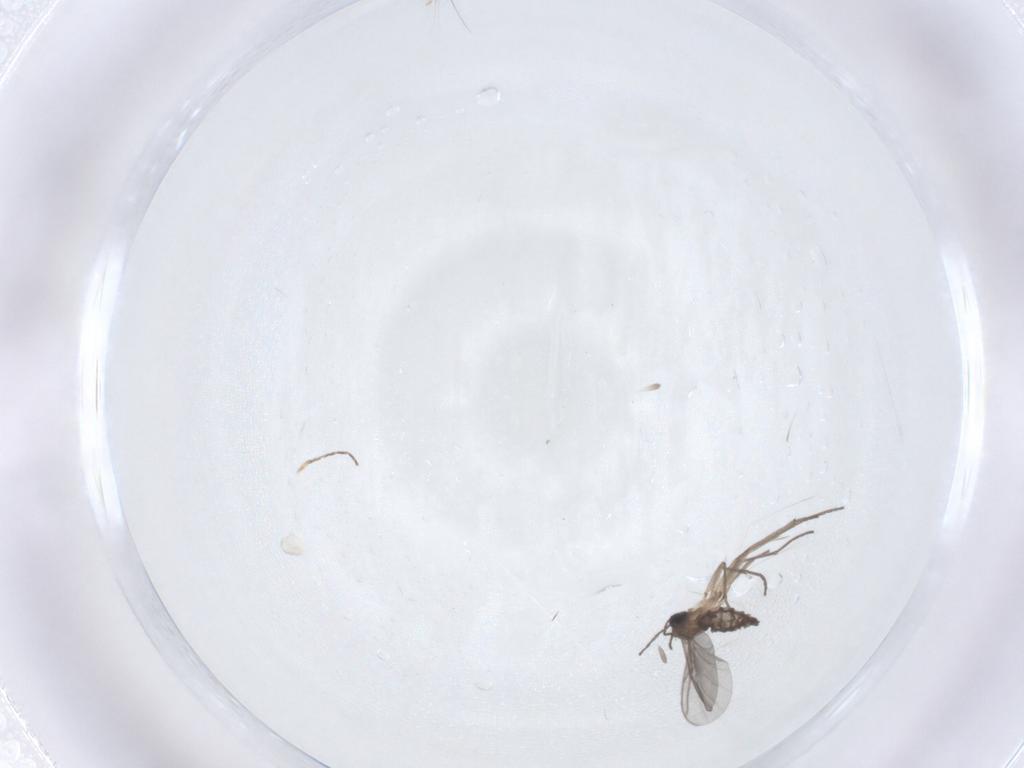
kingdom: Animalia
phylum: Arthropoda
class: Insecta
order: Diptera
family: Sciaridae
